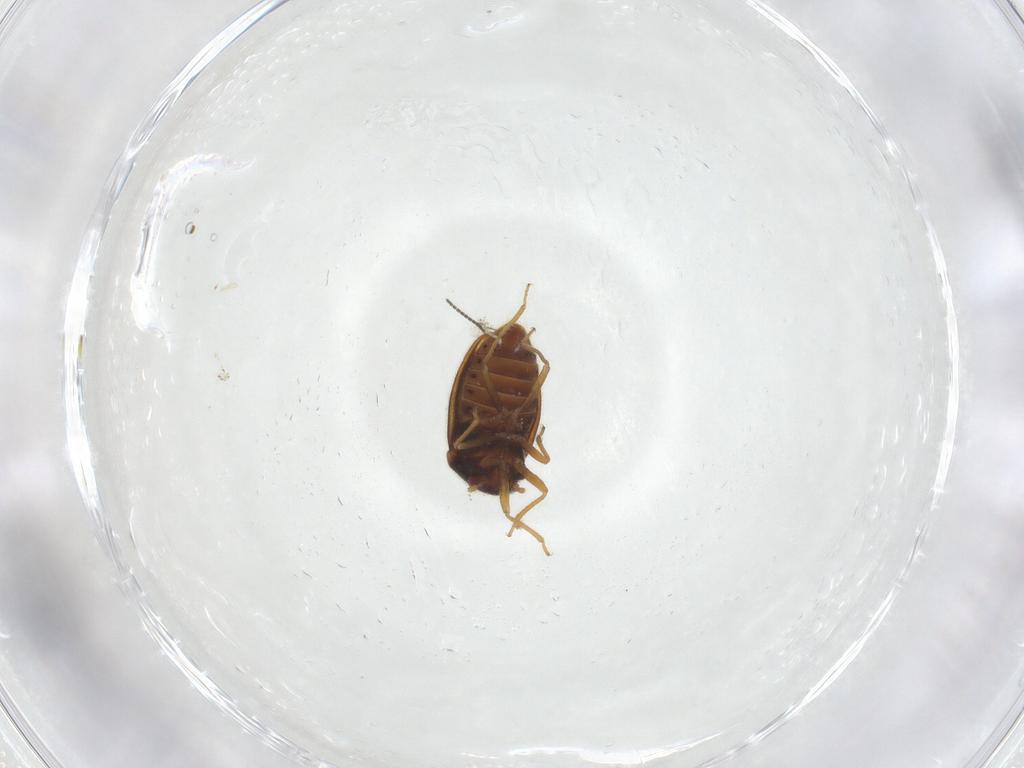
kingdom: Animalia
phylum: Arthropoda
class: Insecta
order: Hemiptera
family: Schizopteridae
